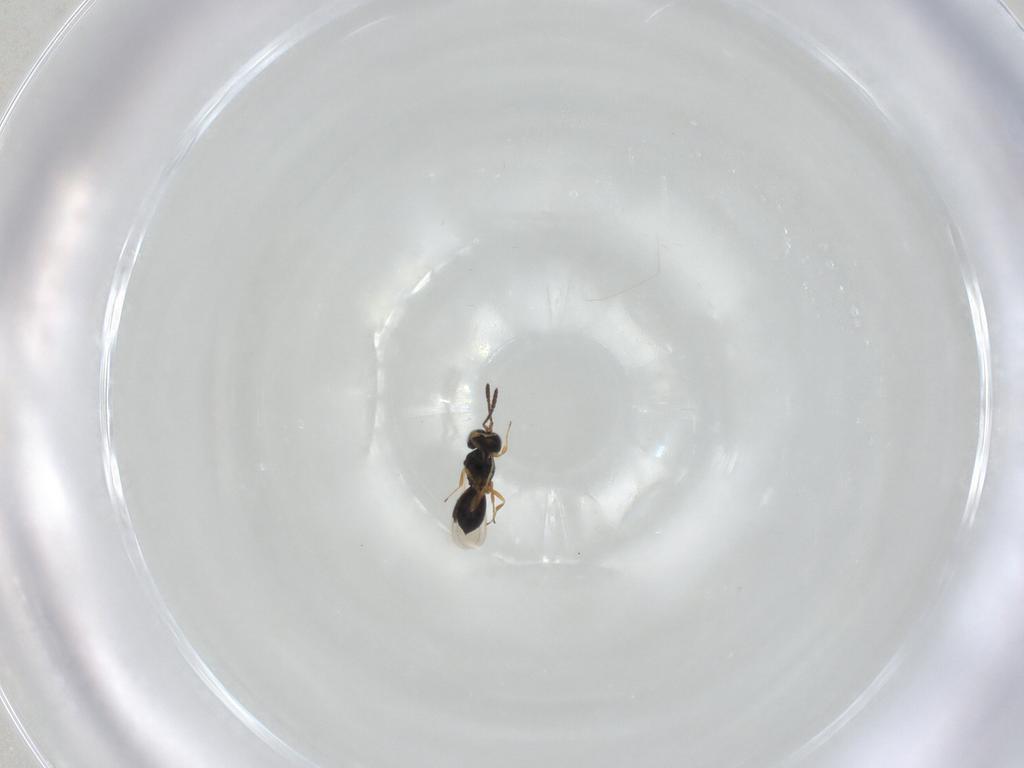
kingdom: Animalia
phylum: Arthropoda
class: Insecta
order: Hymenoptera
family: Scelionidae
